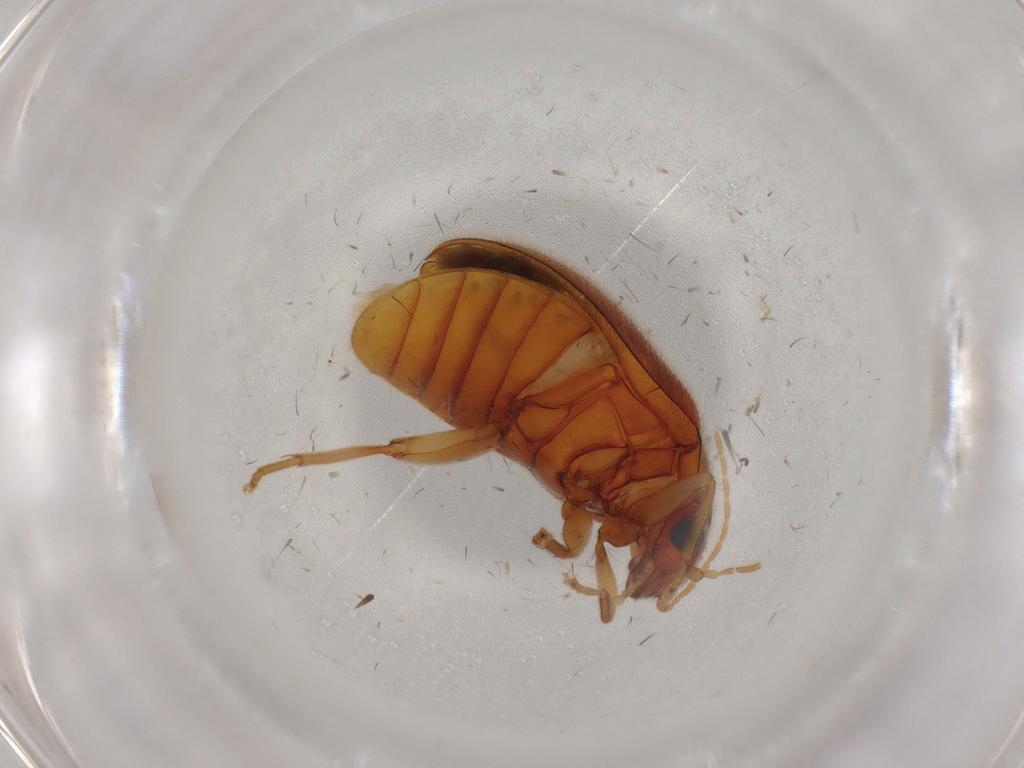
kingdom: Animalia
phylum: Arthropoda
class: Insecta
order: Coleoptera
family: Scirtidae
